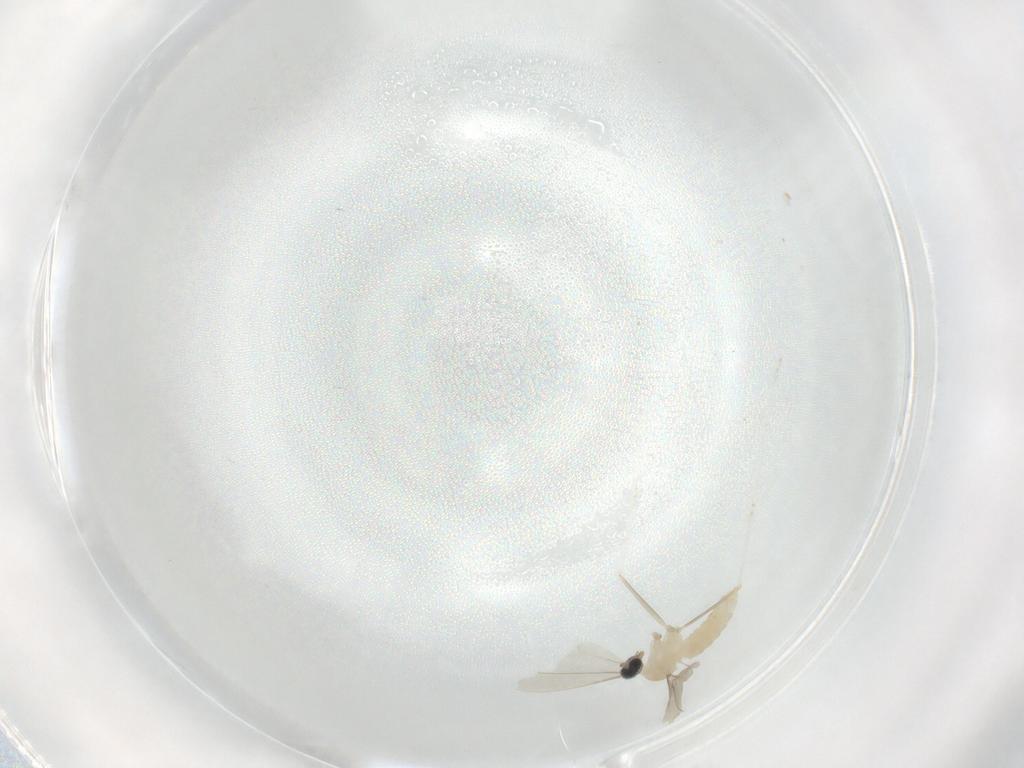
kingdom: Animalia
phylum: Arthropoda
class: Insecta
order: Diptera
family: Cecidomyiidae
